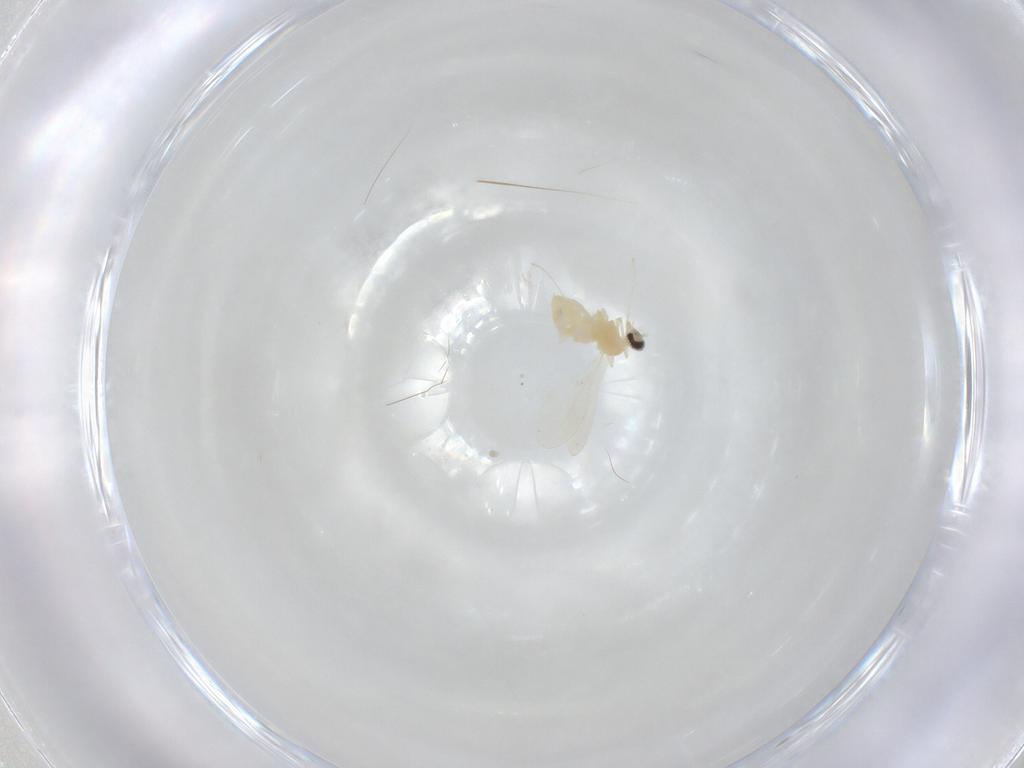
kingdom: Animalia
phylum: Arthropoda
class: Insecta
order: Diptera
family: Cecidomyiidae
